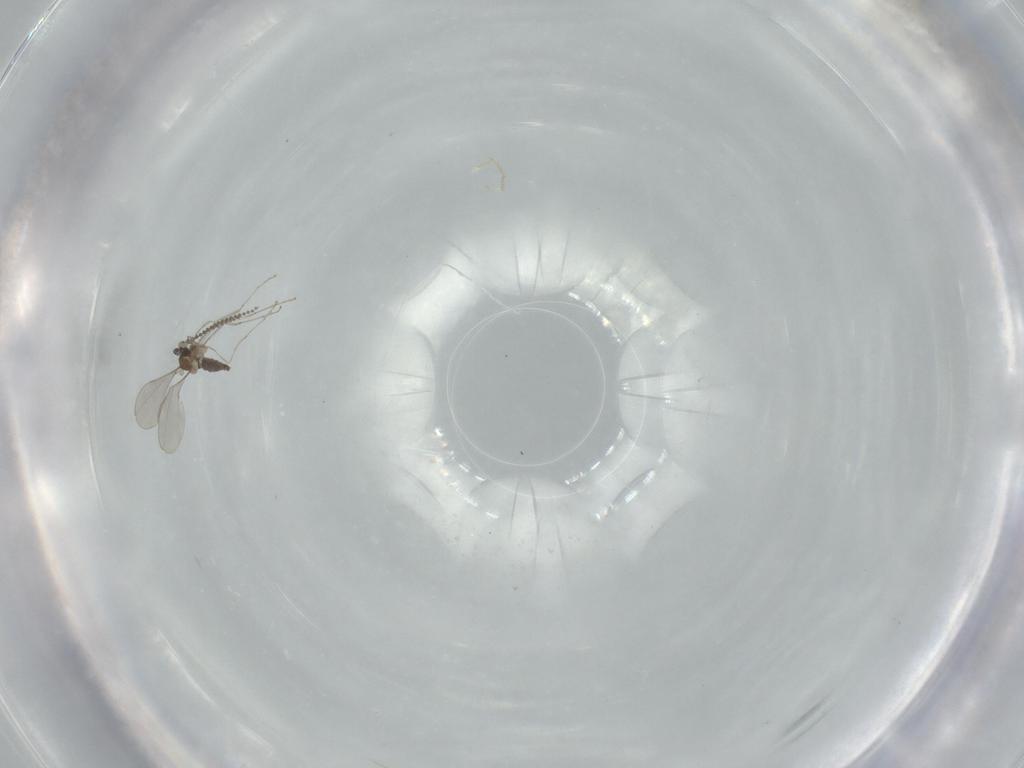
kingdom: Animalia
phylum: Arthropoda
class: Insecta
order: Diptera
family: Cecidomyiidae
